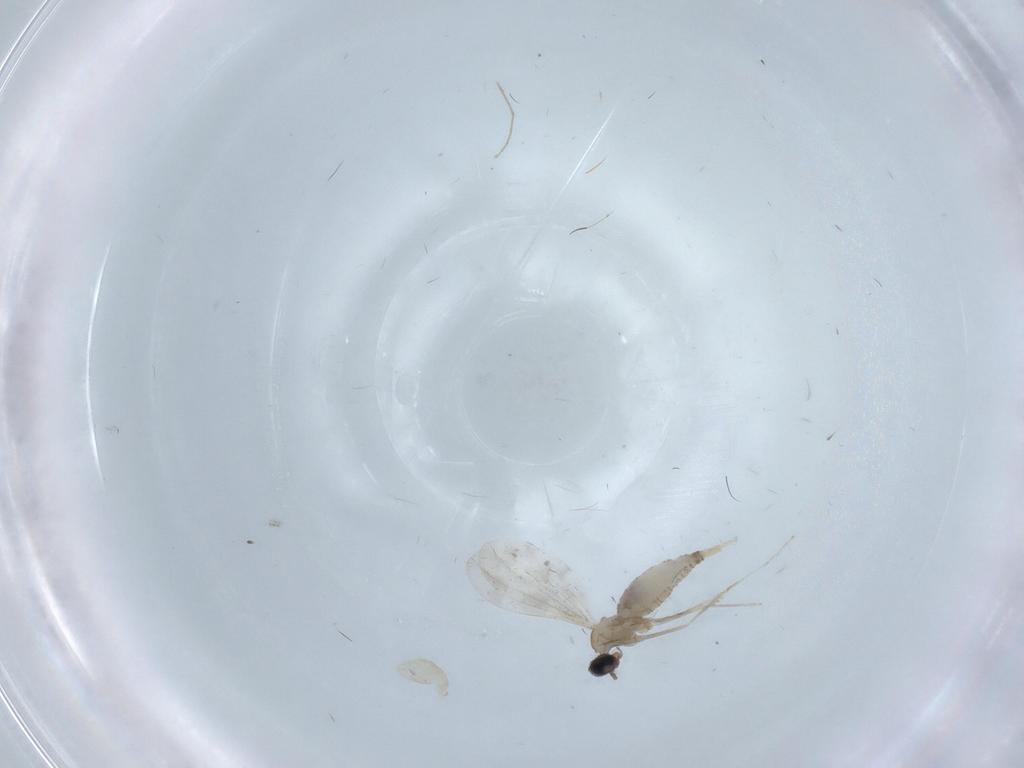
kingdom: Animalia
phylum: Arthropoda
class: Insecta
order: Diptera
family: Cecidomyiidae
